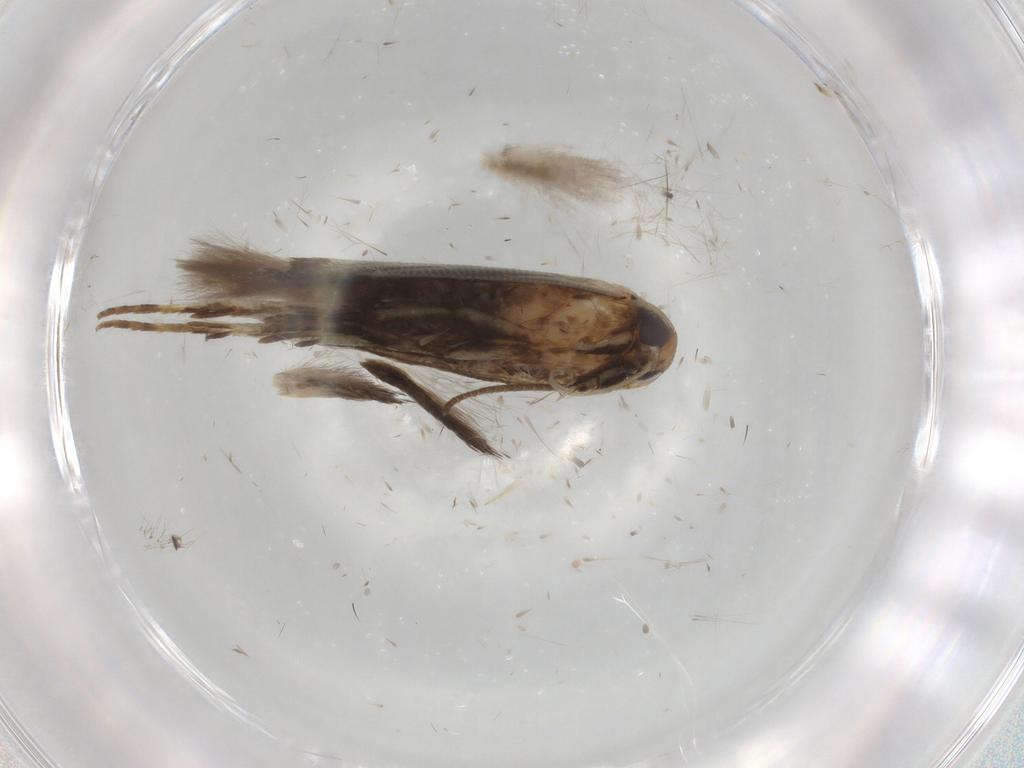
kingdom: Animalia
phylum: Arthropoda
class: Insecta
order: Lepidoptera
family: Cosmopterigidae
